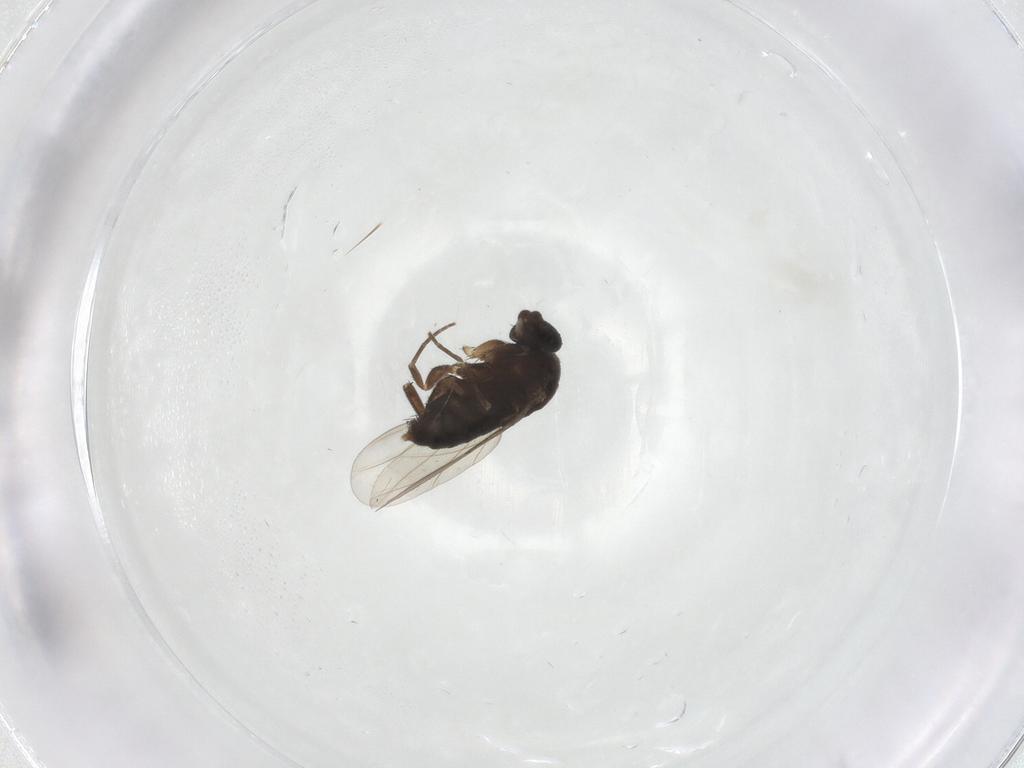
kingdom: Animalia
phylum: Arthropoda
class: Insecta
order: Diptera
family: Phoridae
